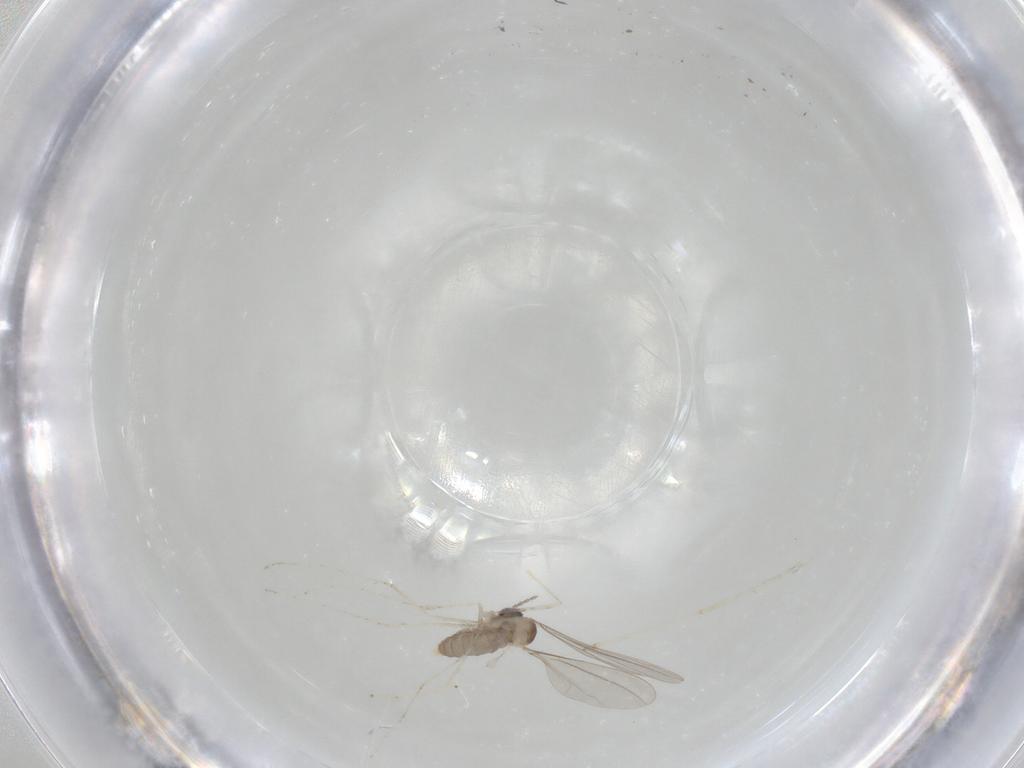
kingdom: Animalia
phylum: Arthropoda
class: Insecta
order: Diptera
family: Cecidomyiidae
